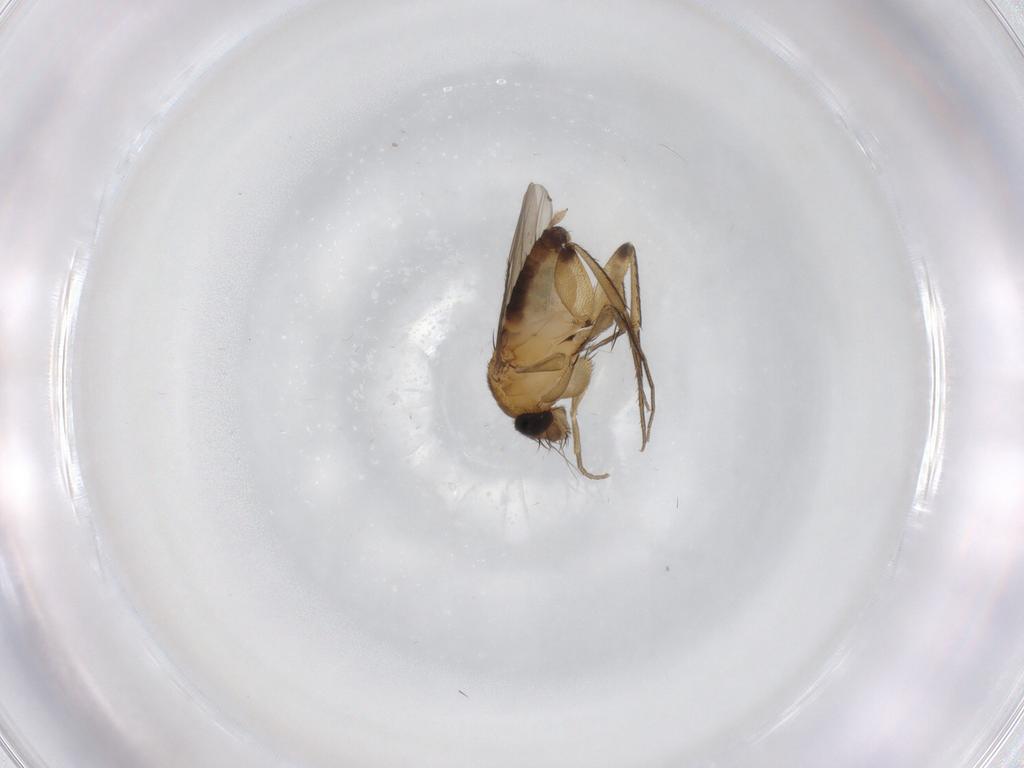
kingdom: Animalia
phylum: Arthropoda
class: Insecta
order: Diptera
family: Phoridae
